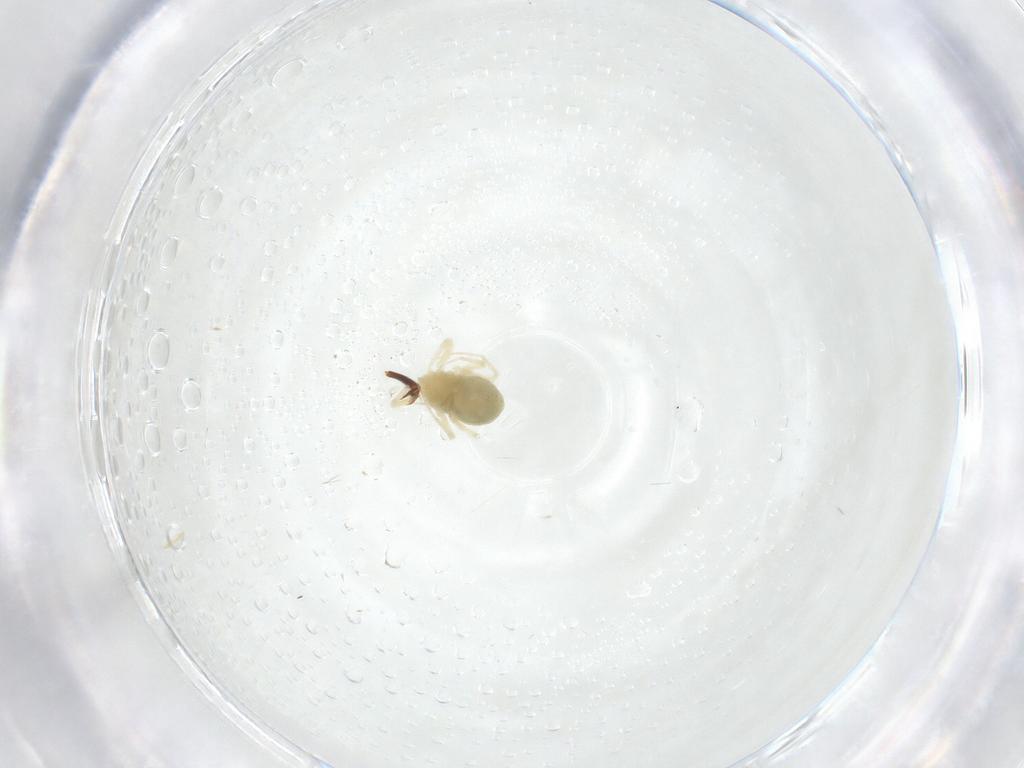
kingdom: Animalia
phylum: Arthropoda
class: Arachnida
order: Trombidiformes
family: Anystidae
